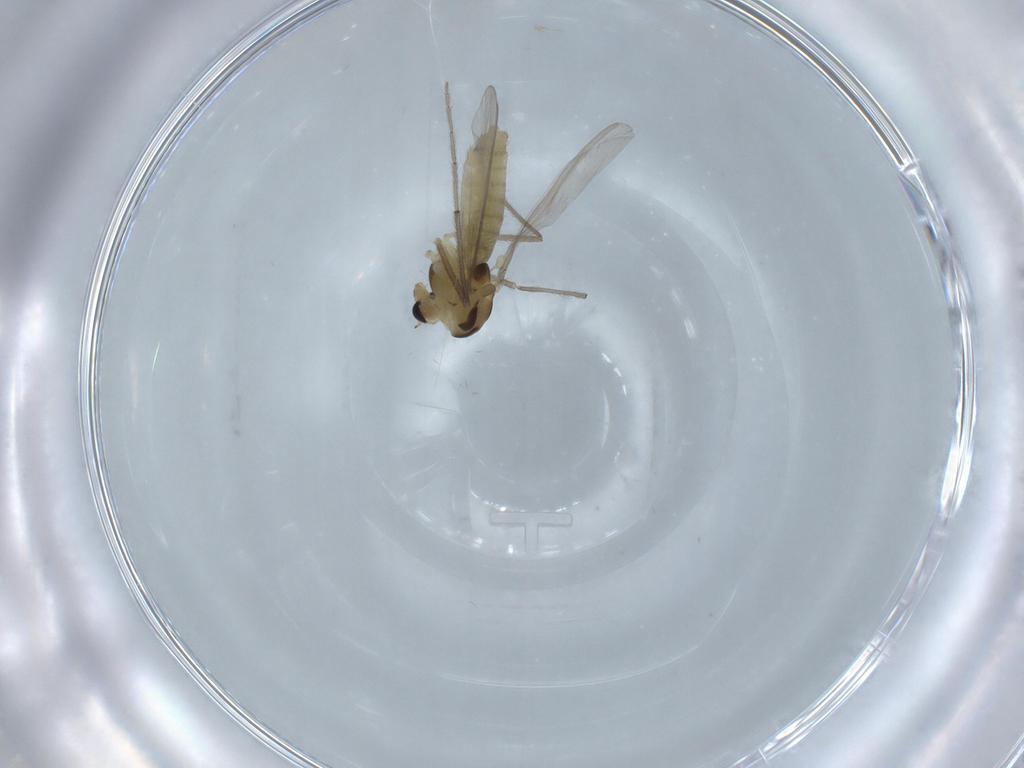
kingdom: Animalia
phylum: Arthropoda
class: Insecta
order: Diptera
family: Chironomidae
